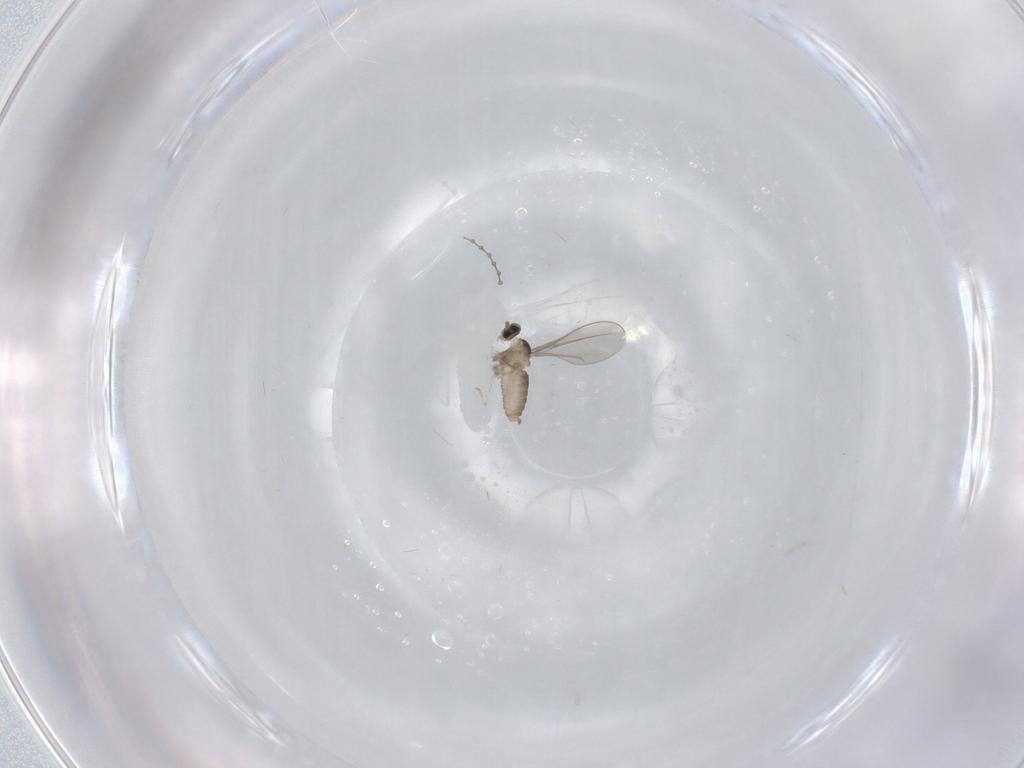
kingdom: Animalia
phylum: Arthropoda
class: Insecta
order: Diptera
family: Cecidomyiidae
